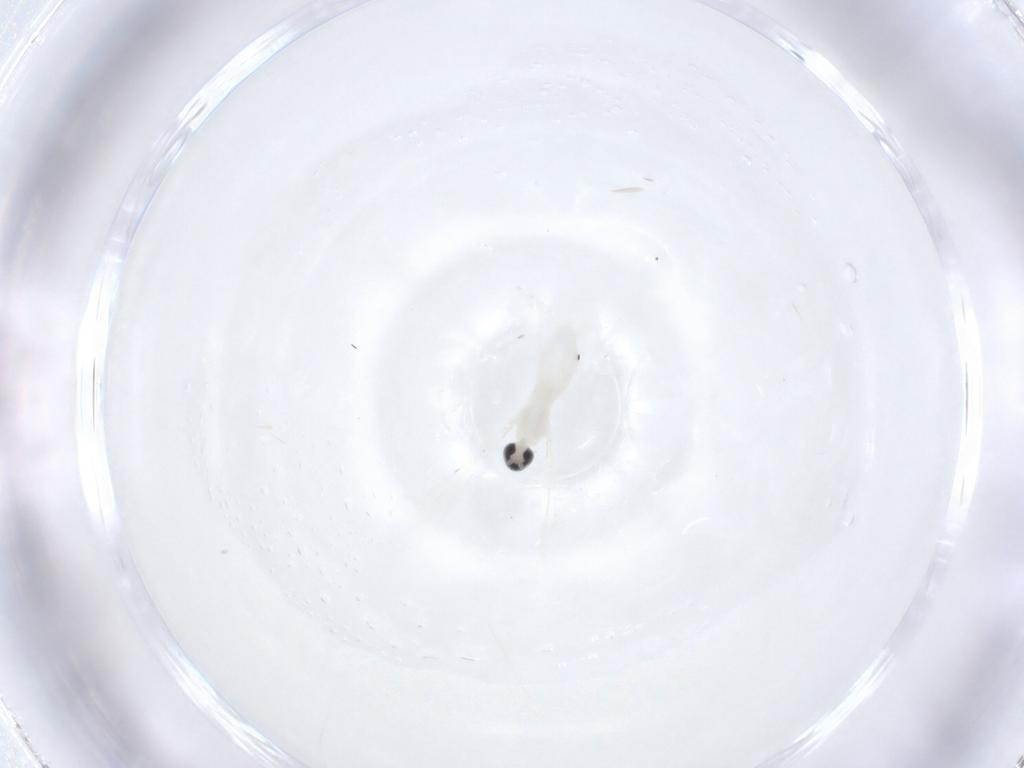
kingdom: Animalia
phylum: Arthropoda
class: Insecta
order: Diptera
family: Cecidomyiidae
